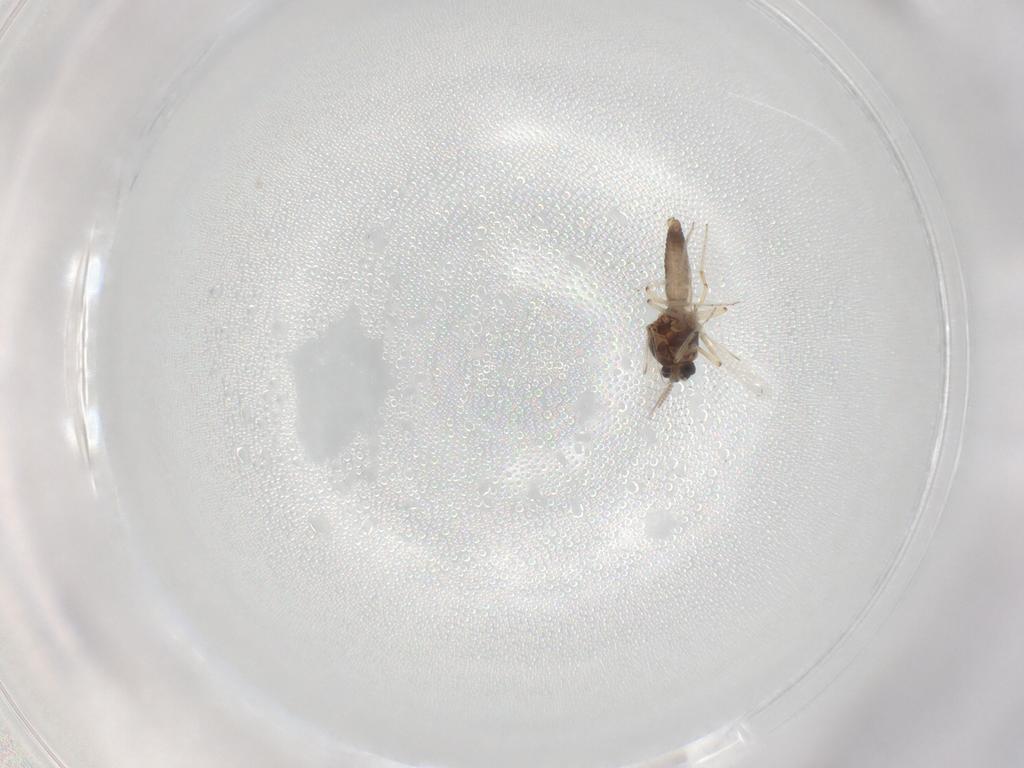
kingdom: Animalia
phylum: Arthropoda
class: Insecta
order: Diptera
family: Ceratopogonidae
